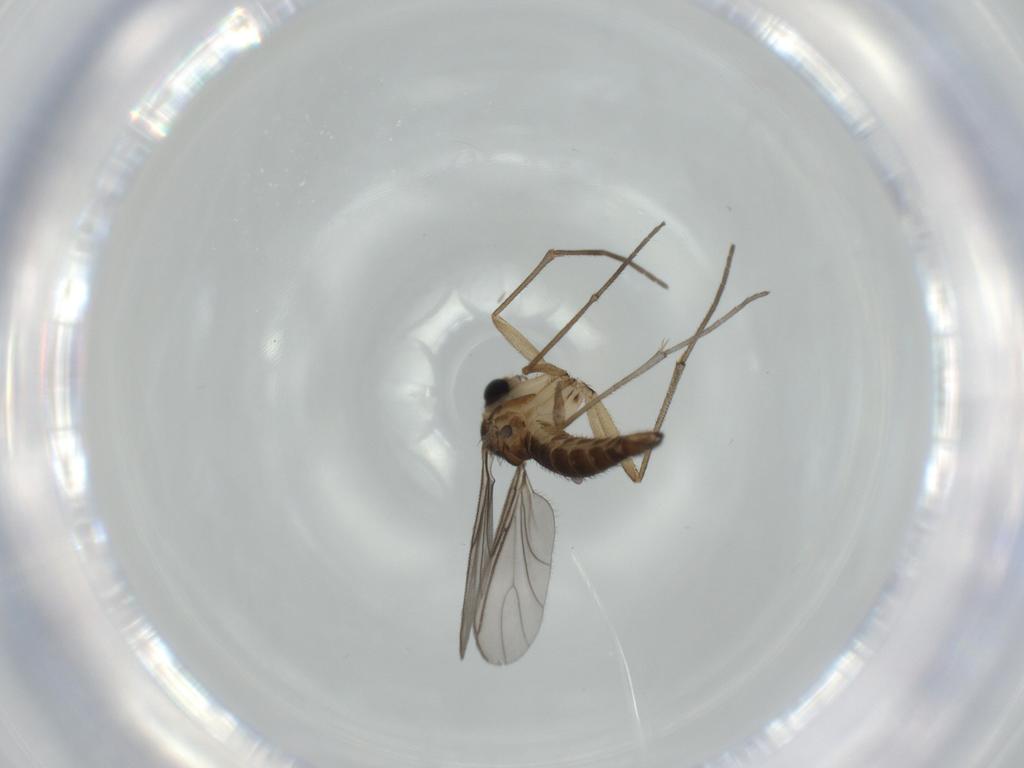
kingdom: Animalia
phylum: Arthropoda
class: Insecta
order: Diptera
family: Sciaridae
